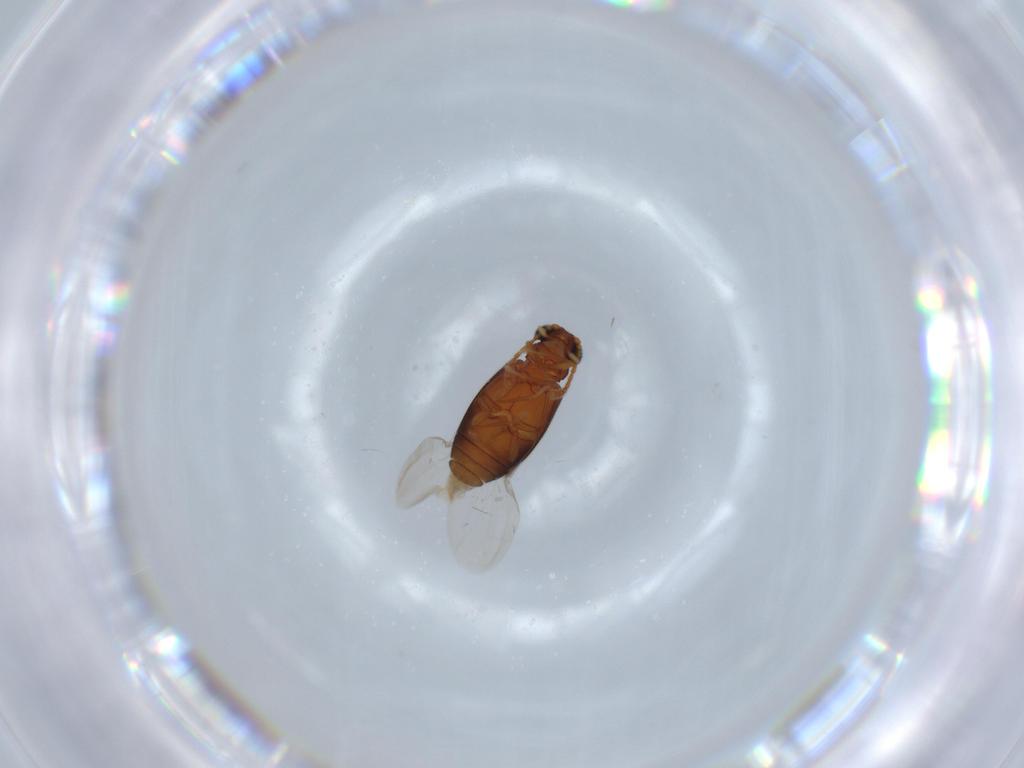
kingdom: Animalia
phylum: Arthropoda
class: Insecta
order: Coleoptera
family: Aderidae
